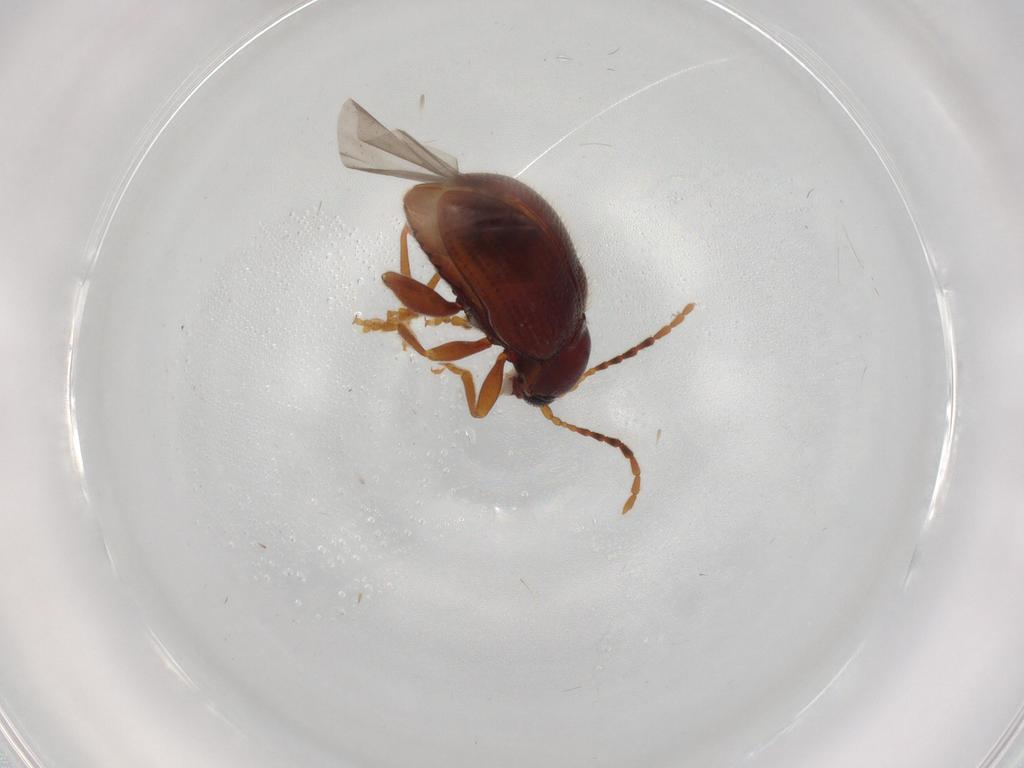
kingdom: Animalia
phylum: Arthropoda
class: Insecta
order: Coleoptera
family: Chrysomelidae
